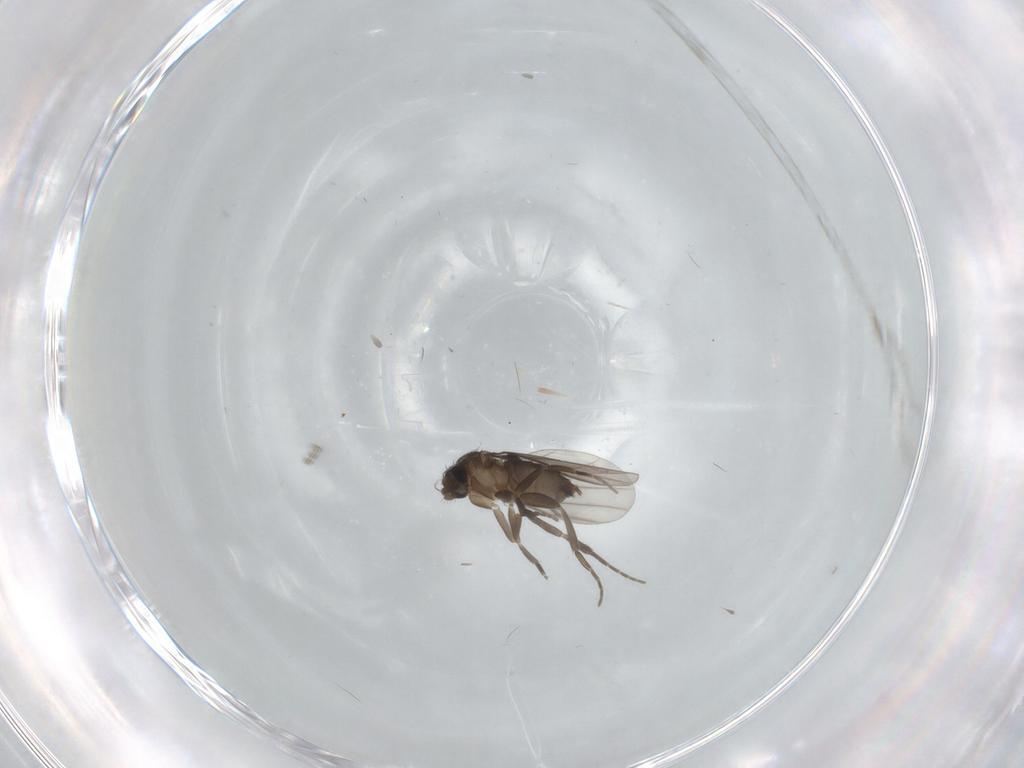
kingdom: Animalia
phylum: Arthropoda
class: Insecta
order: Diptera
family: Phoridae
